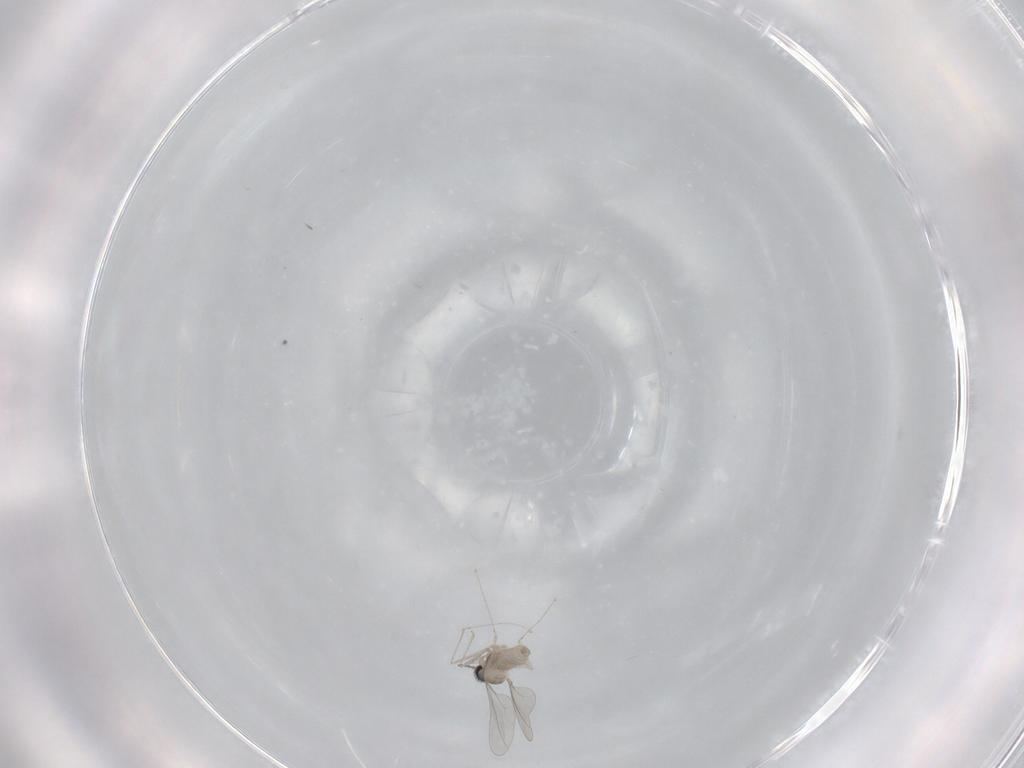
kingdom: Animalia
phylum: Arthropoda
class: Insecta
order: Diptera
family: Cecidomyiidae
